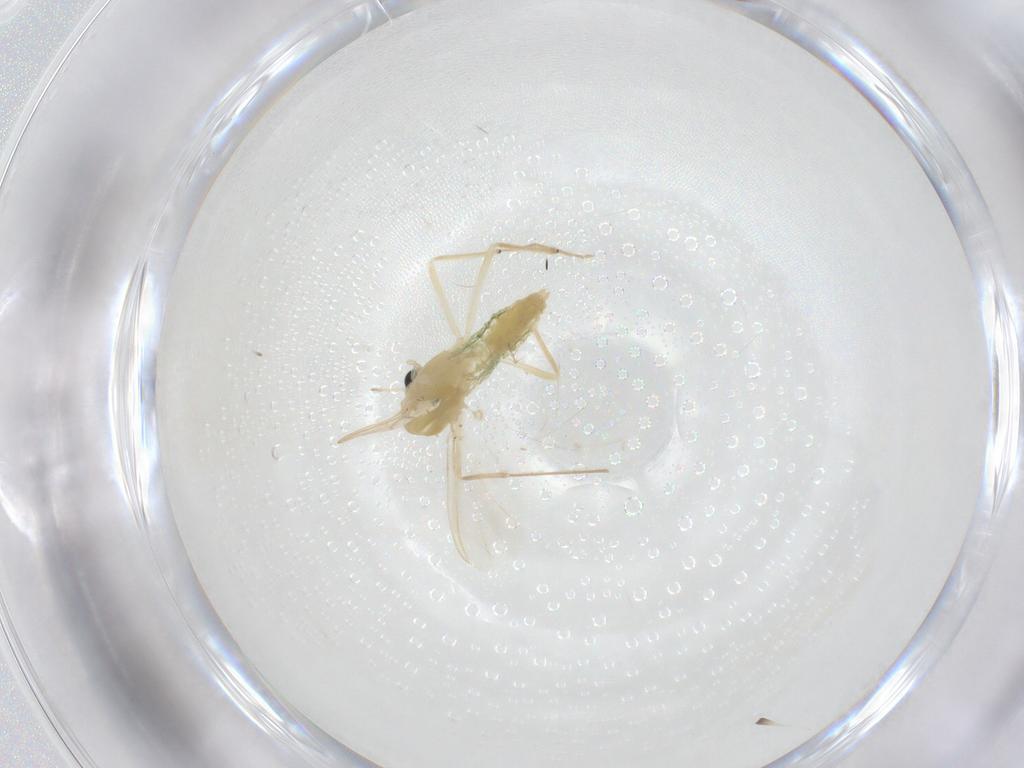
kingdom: Animalia
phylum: Arthropoda
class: Insecta
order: Diptera
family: Chironomidae
